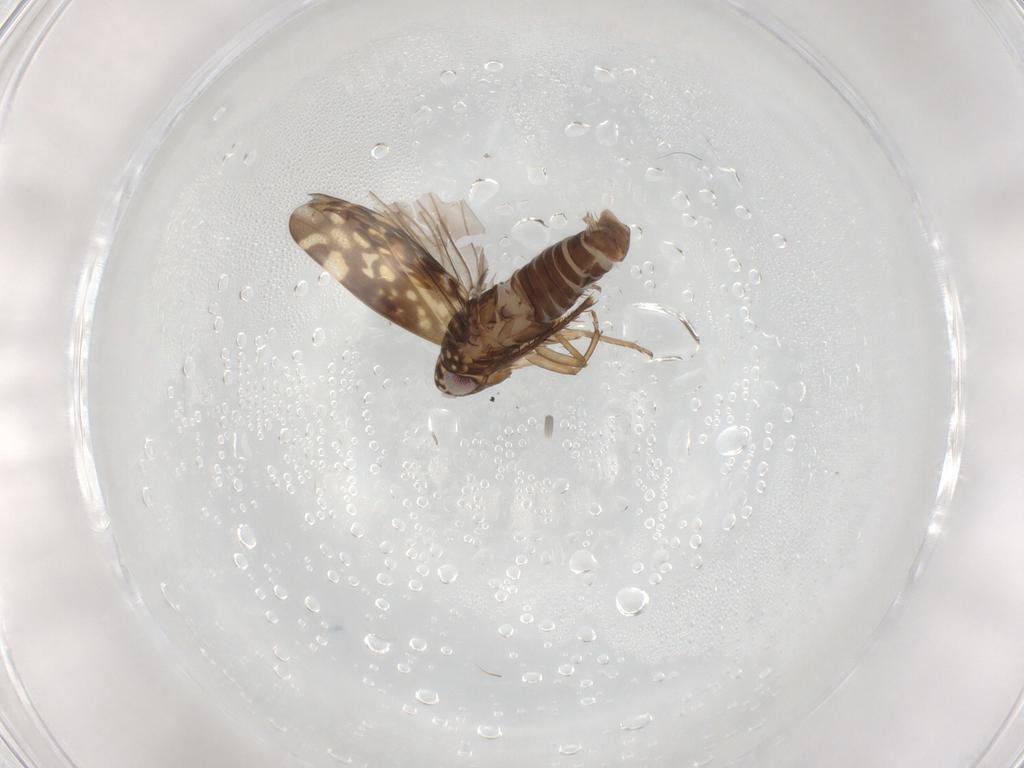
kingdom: Animalia
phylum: Arthropoda
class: Insecta
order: Hemiptera
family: Cicadellidae
